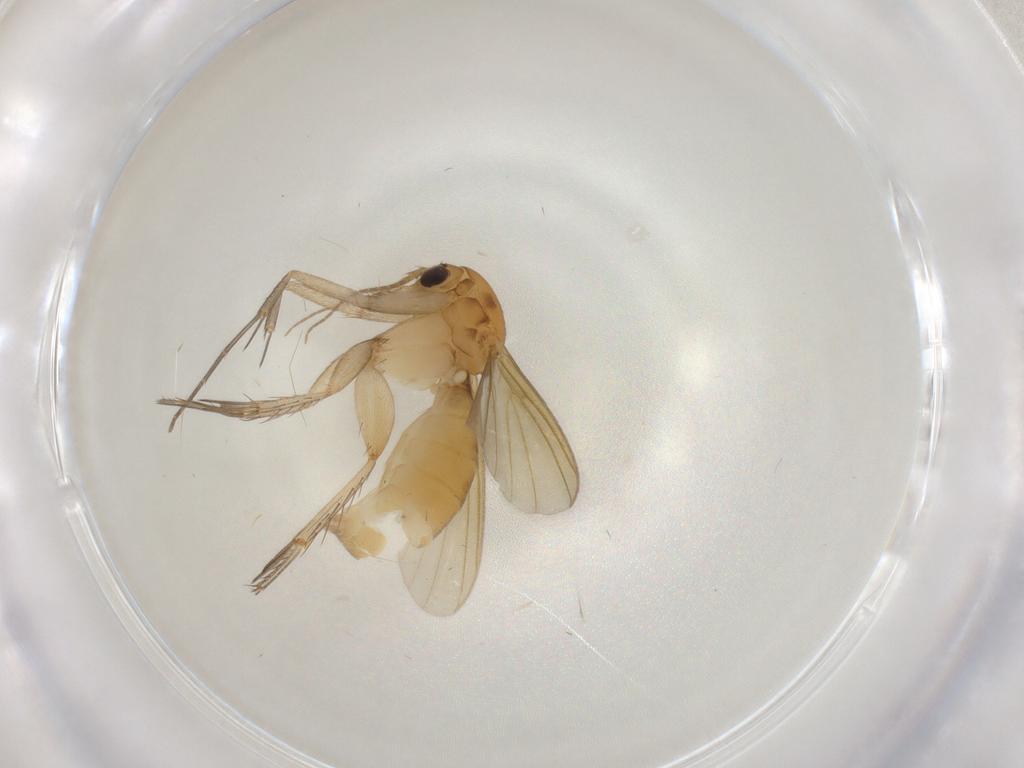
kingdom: Animalia
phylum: Arthropoda
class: Insecta
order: Diptera
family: Mycetophilidae
